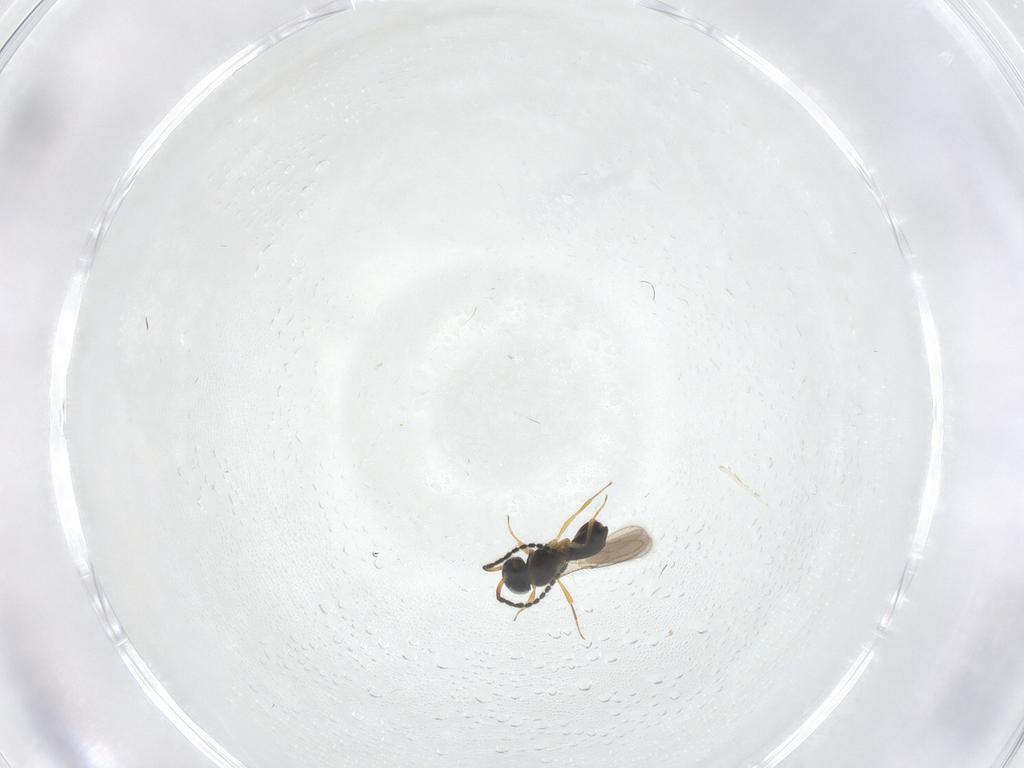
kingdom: Animalia
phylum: Arthropoda
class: Insecta
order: Hymenoptera
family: Scelionidae
